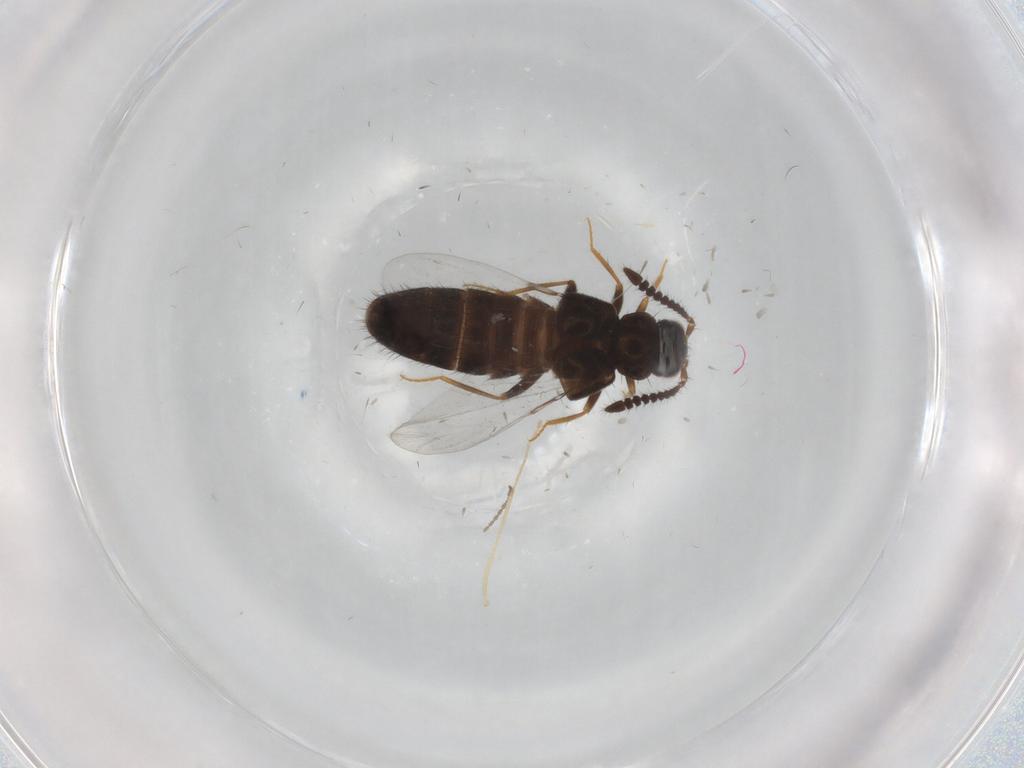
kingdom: Animalia
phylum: Arthropoda
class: Insecta
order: Coleoptera
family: Staphylinidae
